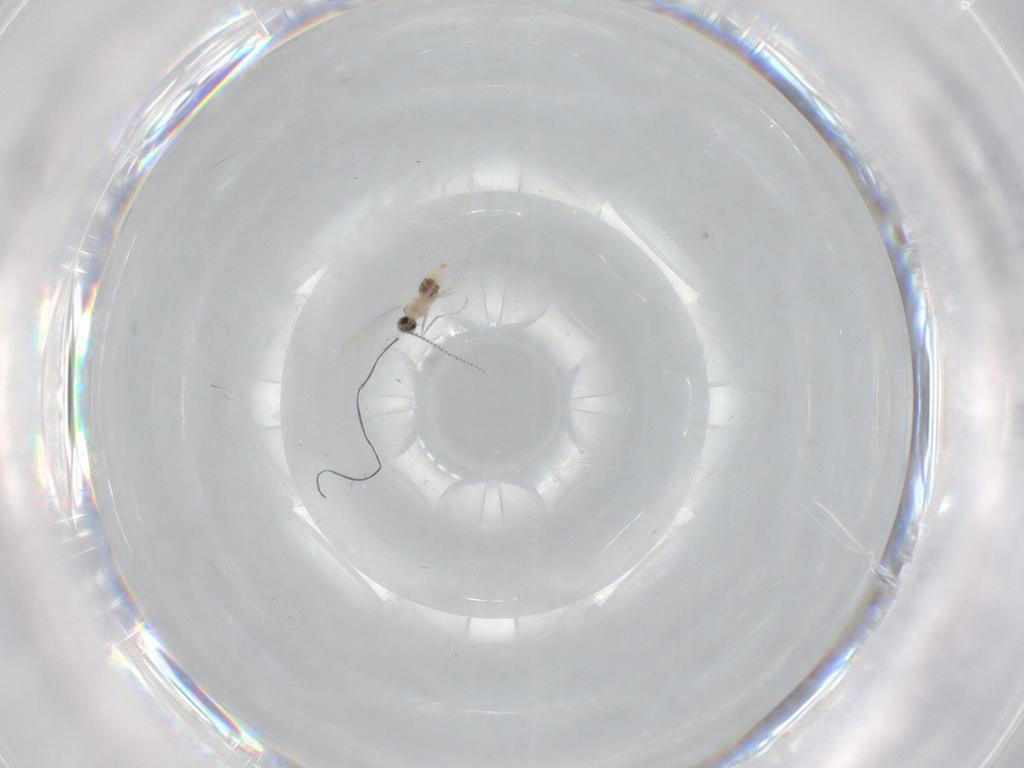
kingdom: Animalia
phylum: Arthropoda
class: Insecta
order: Diptera
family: Cecidomyiidae
